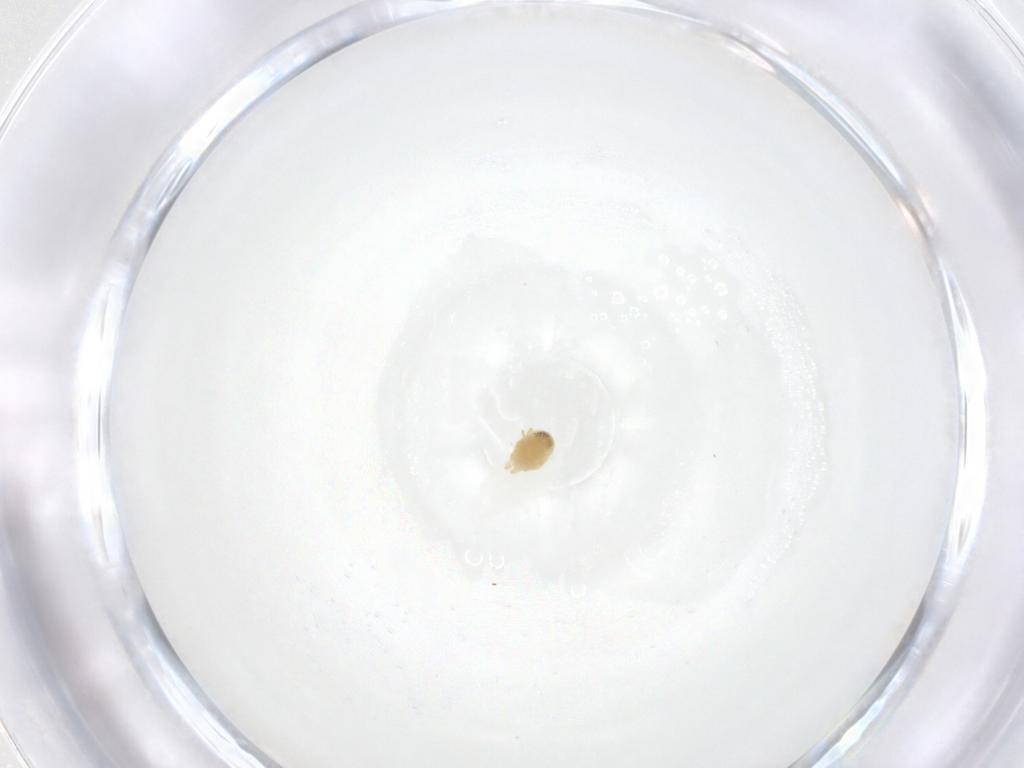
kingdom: Animalia
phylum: Arthropoda
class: Arachnida
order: Trombidiformes
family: Tetranychidae
